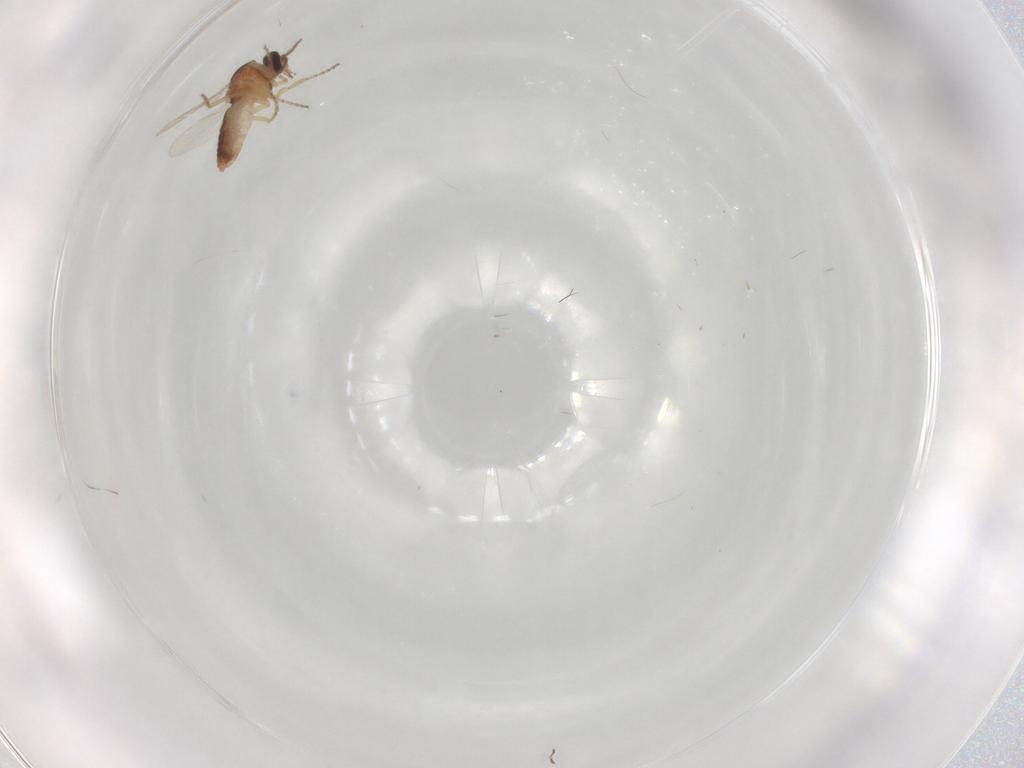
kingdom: Animalia
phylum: Arthropoda
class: Insecta
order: Diptera
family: Ceratopogonidae
